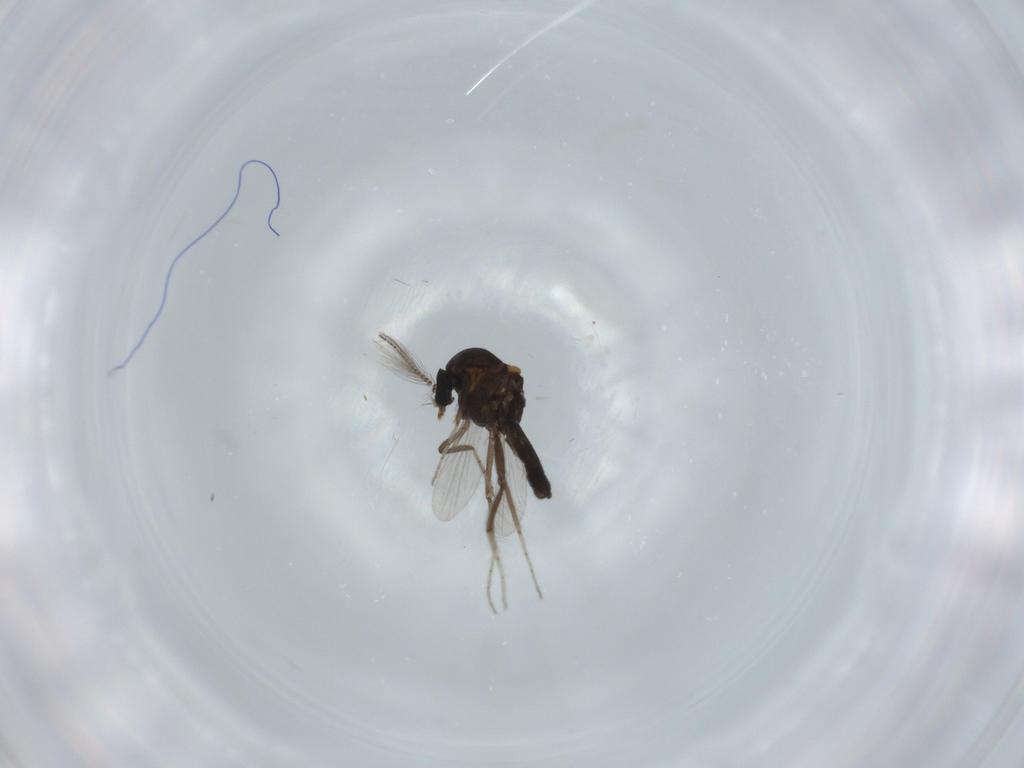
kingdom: Animalia
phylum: Arthropoda
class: Insecta
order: Diptera
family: Ceratopogonidae
